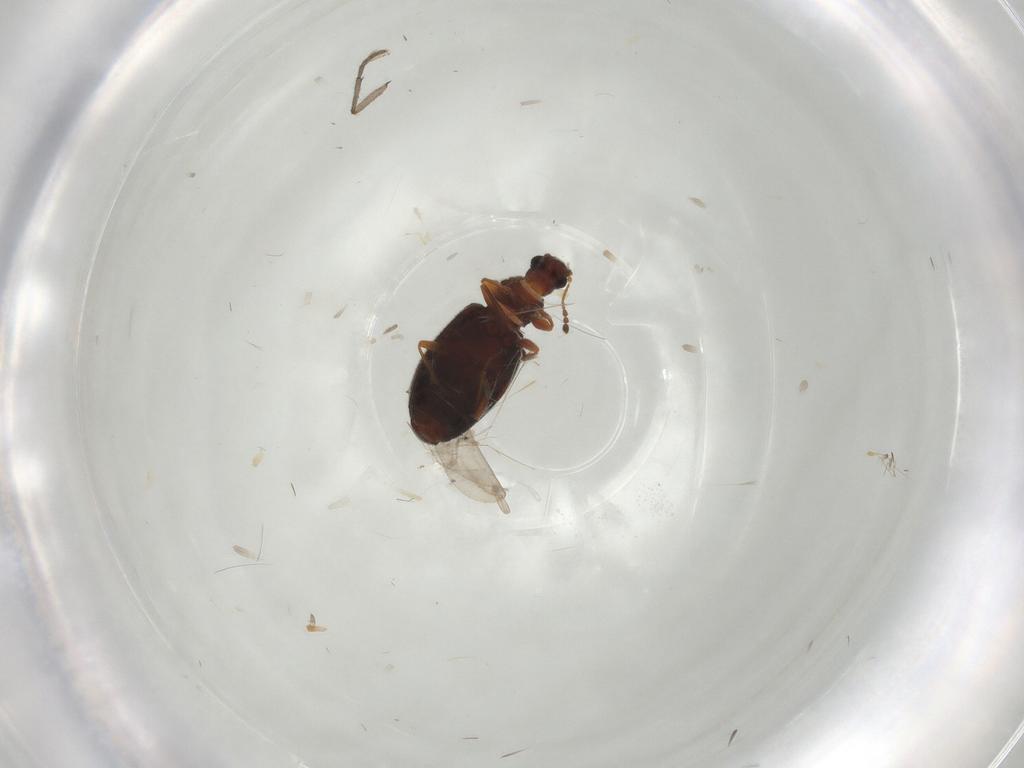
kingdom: Animalia
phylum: Arthropoda
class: Insecta
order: Coleoptera
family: Latridiidae
